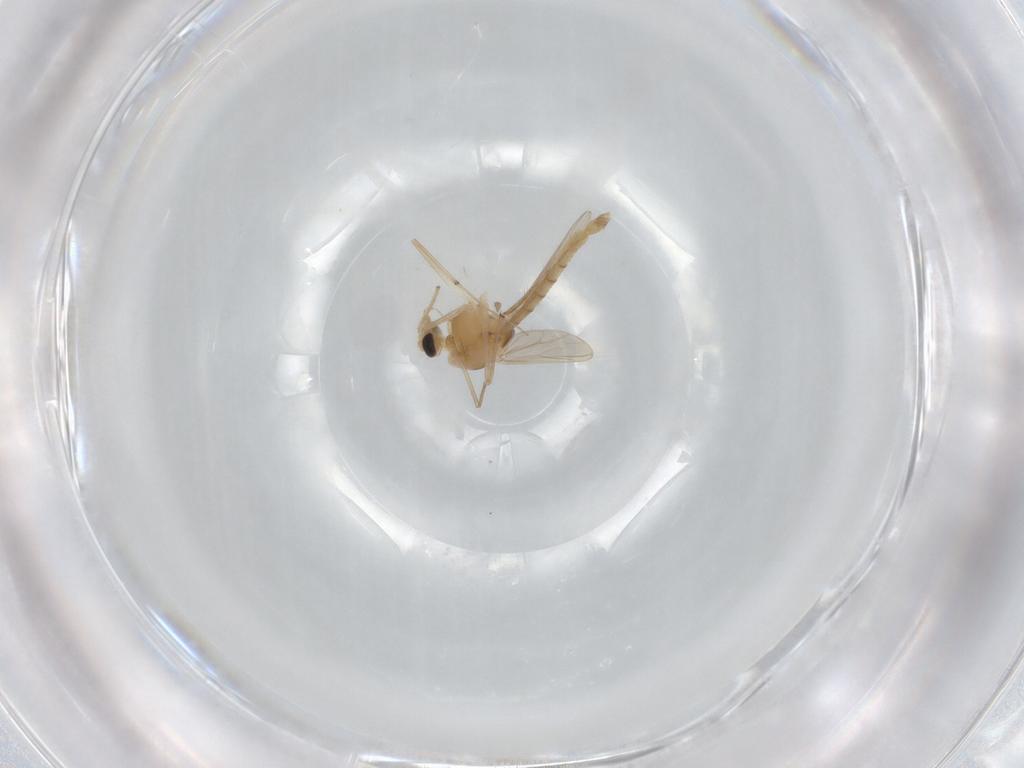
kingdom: Animalia
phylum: Arthropoda
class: Insecta
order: Diptera
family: Chironomidae
